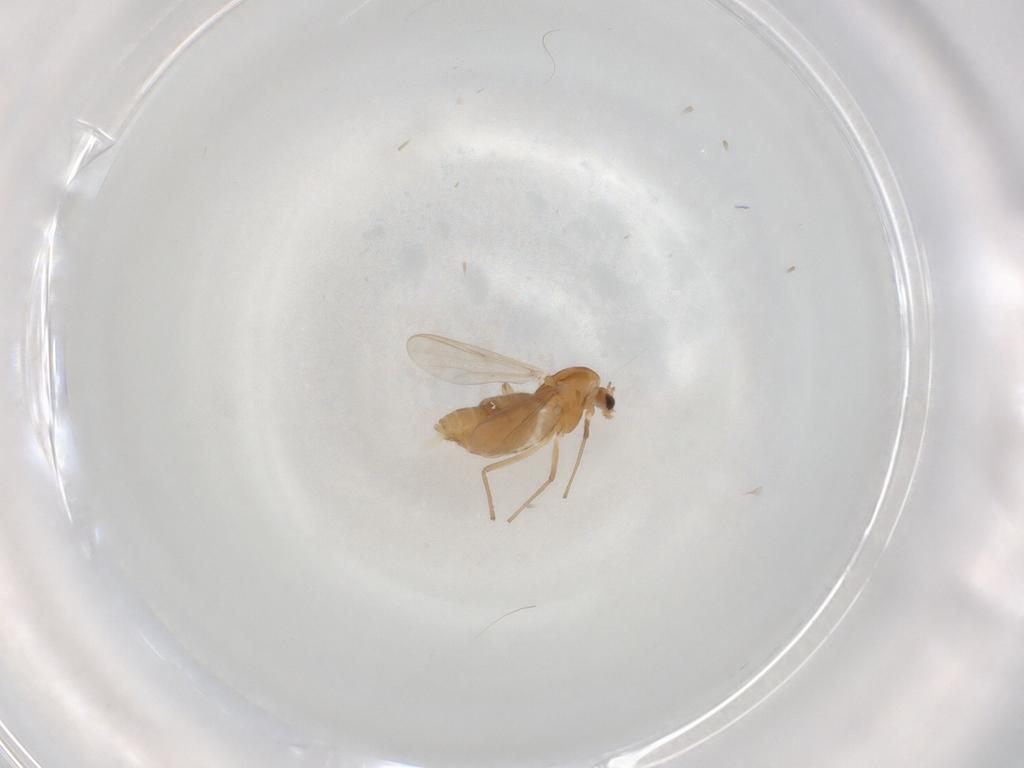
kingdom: Animalia
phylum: Arthropoda
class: Insecta
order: Diptera
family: Chironomidae
